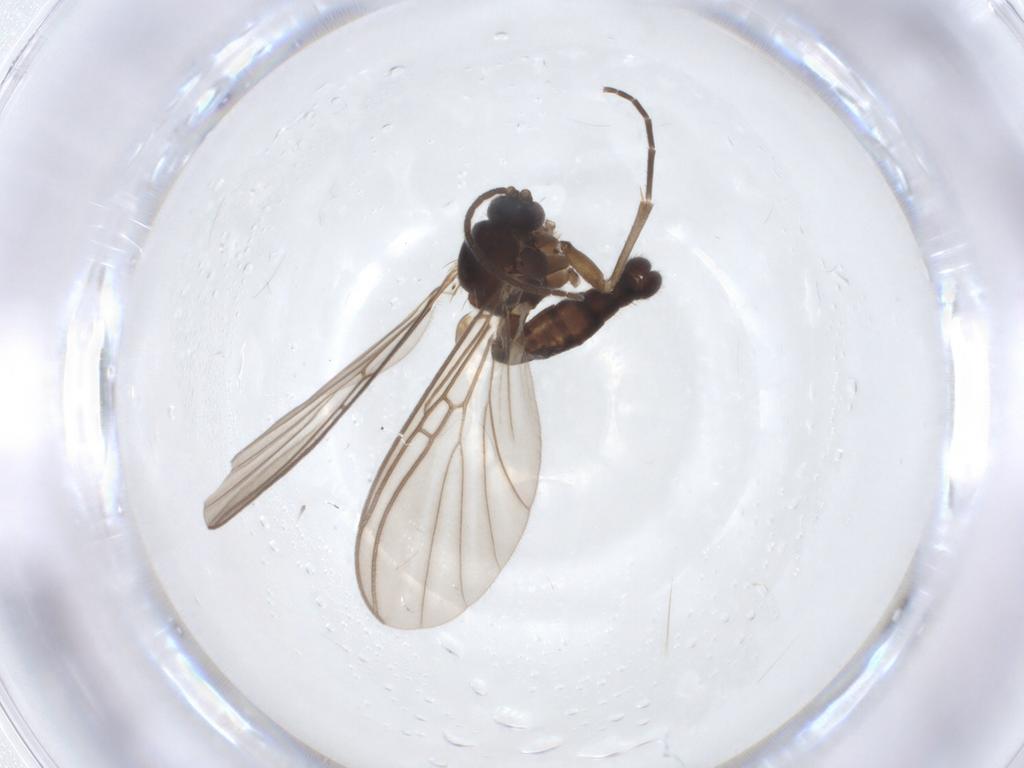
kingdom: Animalia
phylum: Arthropoda
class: Insecta
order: Diptera
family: Mycetophilidae
